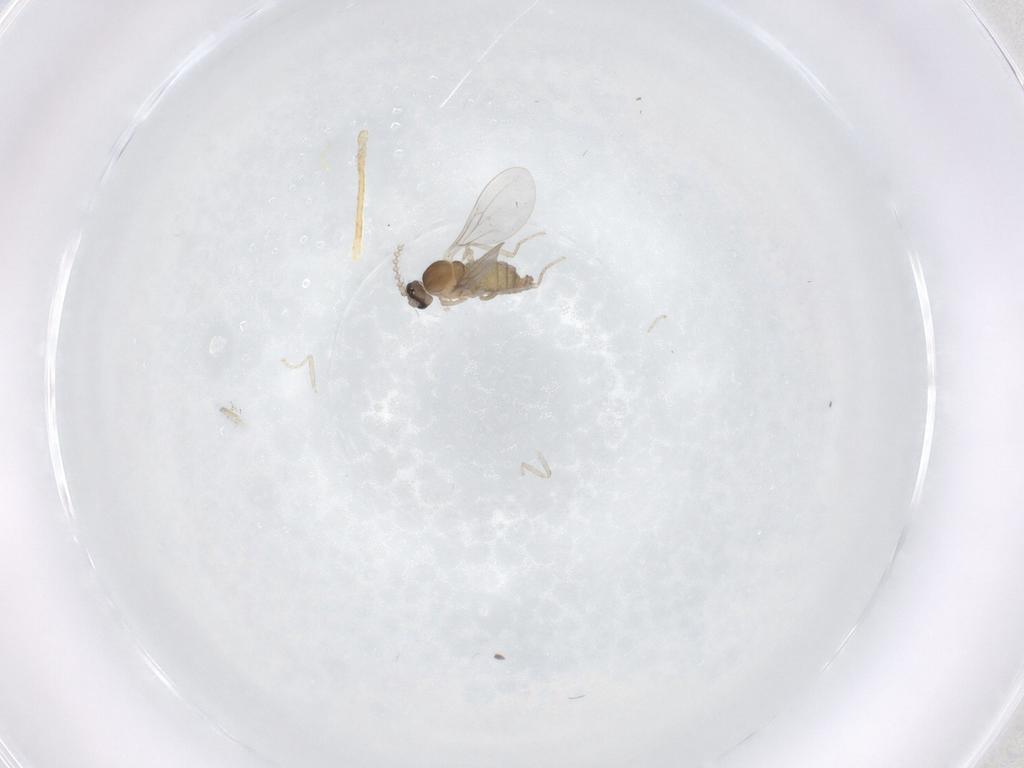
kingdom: Animalia
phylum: Arthropoda
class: Insecta
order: Diptera
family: Cecidomyiidae
